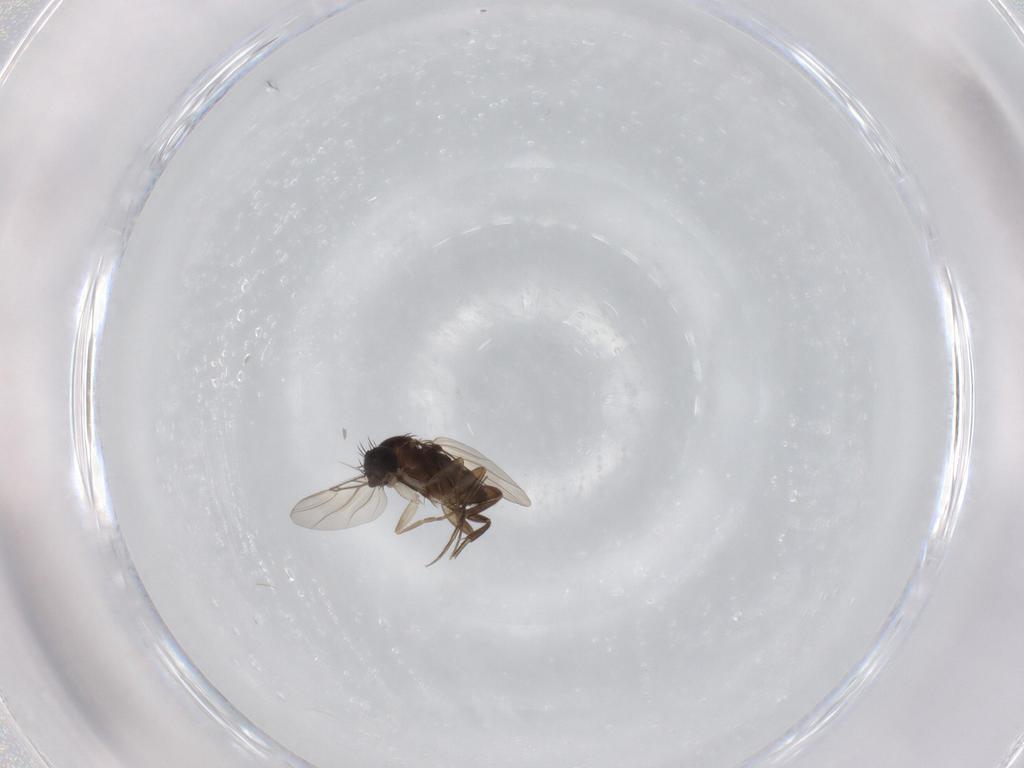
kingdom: Animalia
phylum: Arthropoda
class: Insecta
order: Diptera
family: Phoridae
